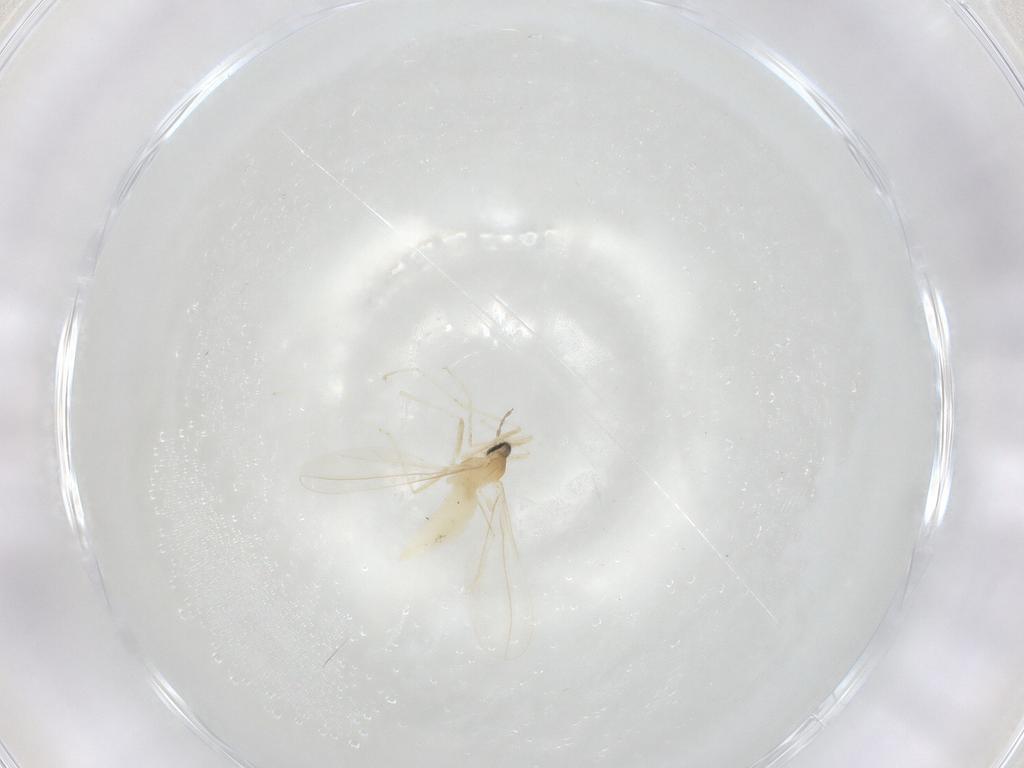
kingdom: Animalia
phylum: Arthropoda
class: Insecta
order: Diptera
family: Cecidomyiidae
